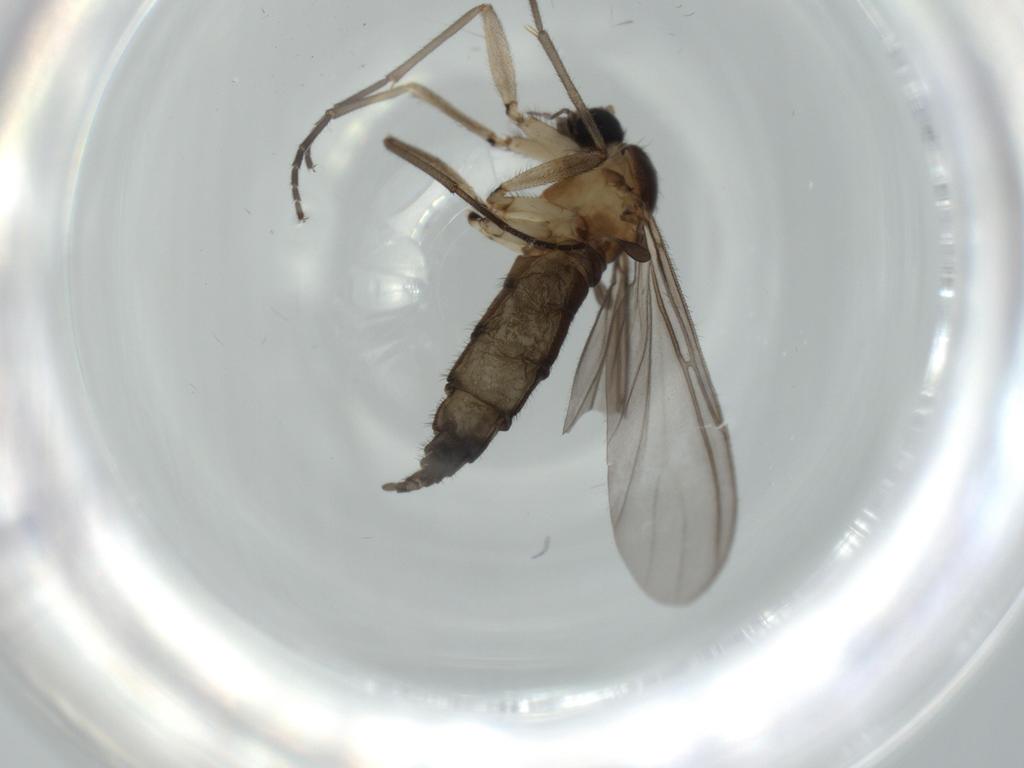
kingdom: Animalia
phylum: Arthropoda
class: Insecta
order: Diptera
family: Sciaridae
